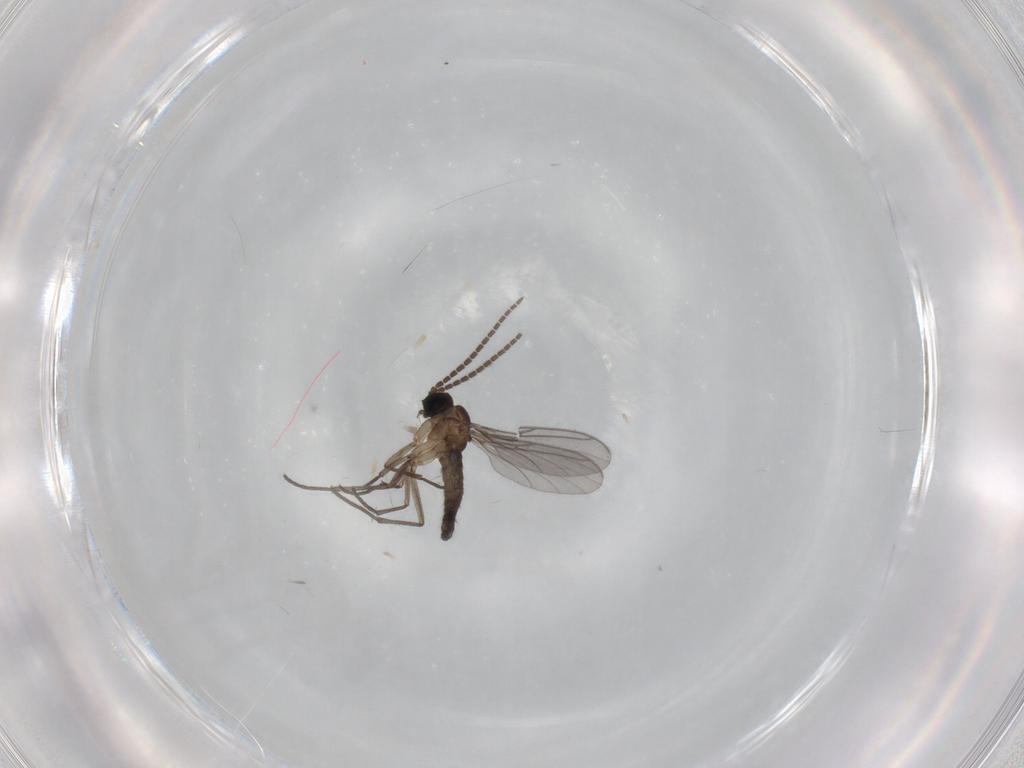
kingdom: Animalia
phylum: Arthropoda
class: Insecta
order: Diptera
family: Sciaridae
